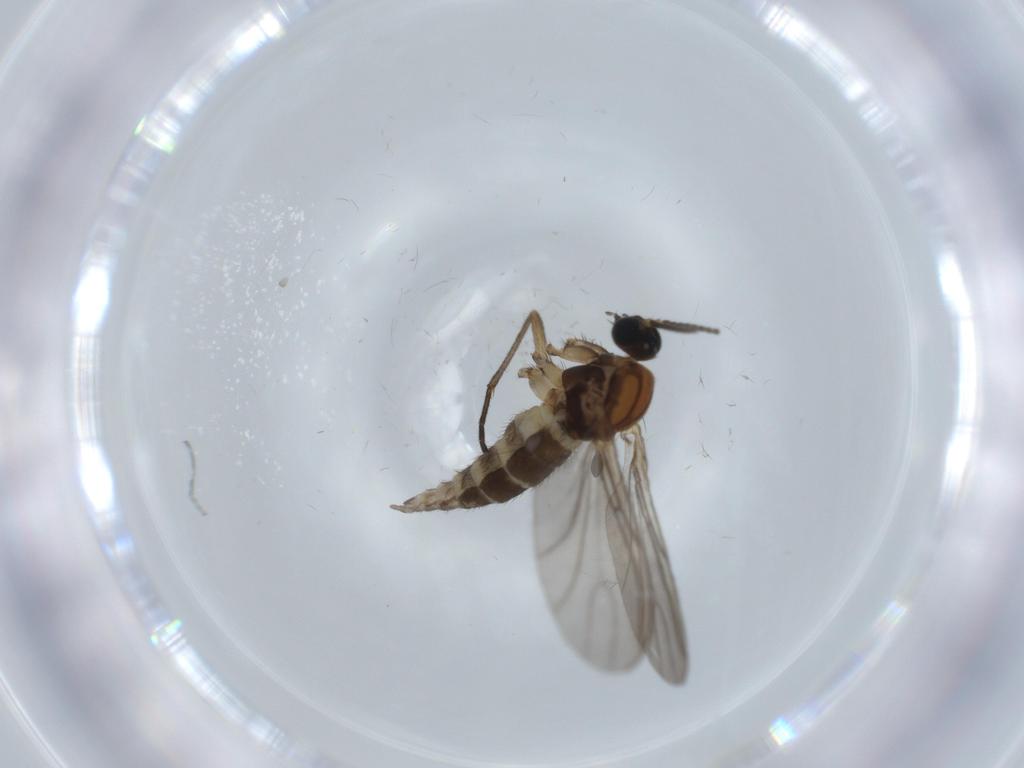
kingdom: Animalia
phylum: Arthropoda
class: Insecta
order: Diptera
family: Sciaridae
